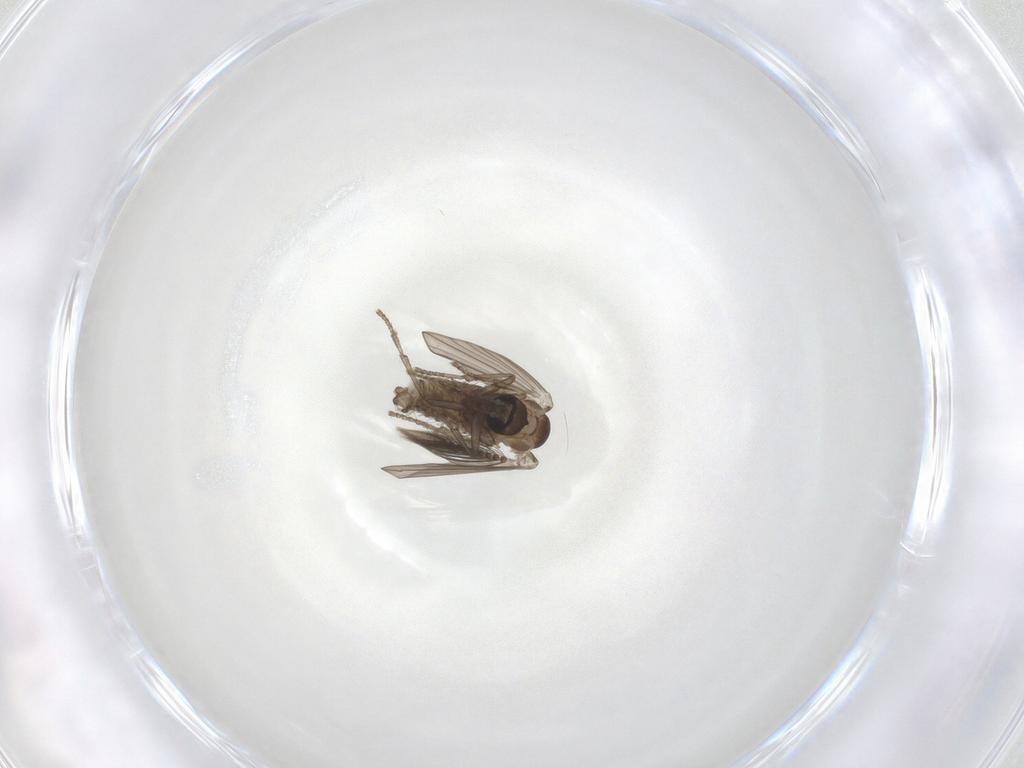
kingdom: Animalia
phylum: Arthropoda
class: Insecta
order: Diptera
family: Psychodidae
